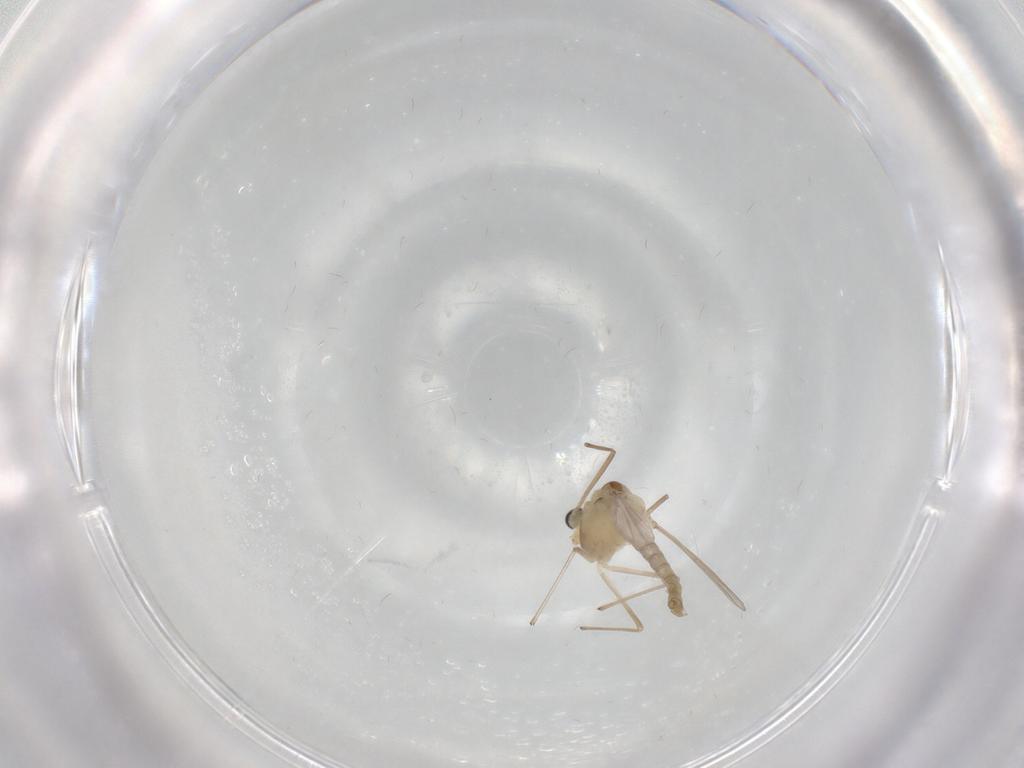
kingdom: Animalia
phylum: Arthropoda
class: Insecta
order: Diptera
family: Chironomidae
